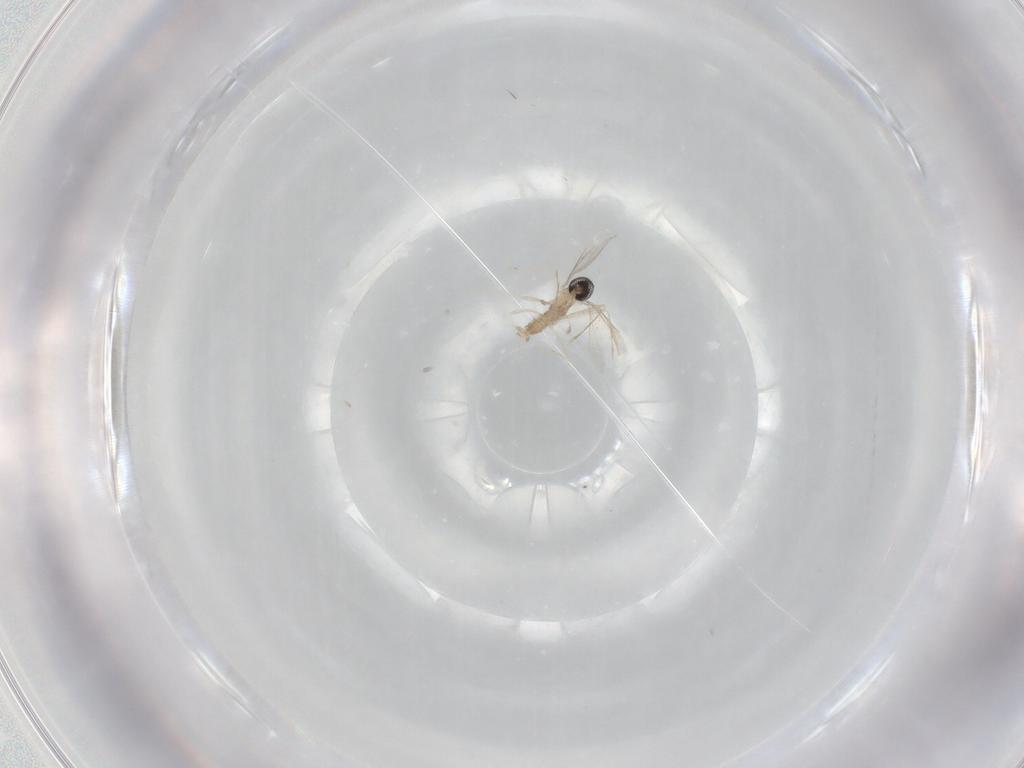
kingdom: Animalia
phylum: Arthropoda
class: Insecta
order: Diptera
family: Cecidomyiidae
